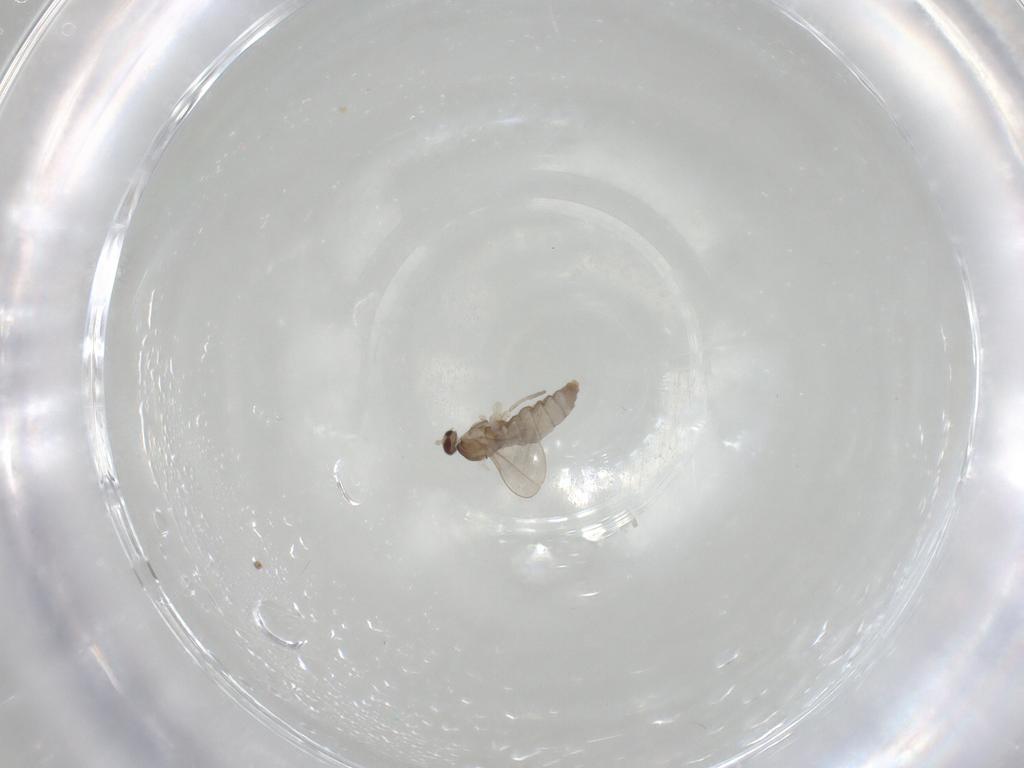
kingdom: Animalia
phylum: Arthropoda
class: Insecta
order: Diptera
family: Cecidomyiidae
